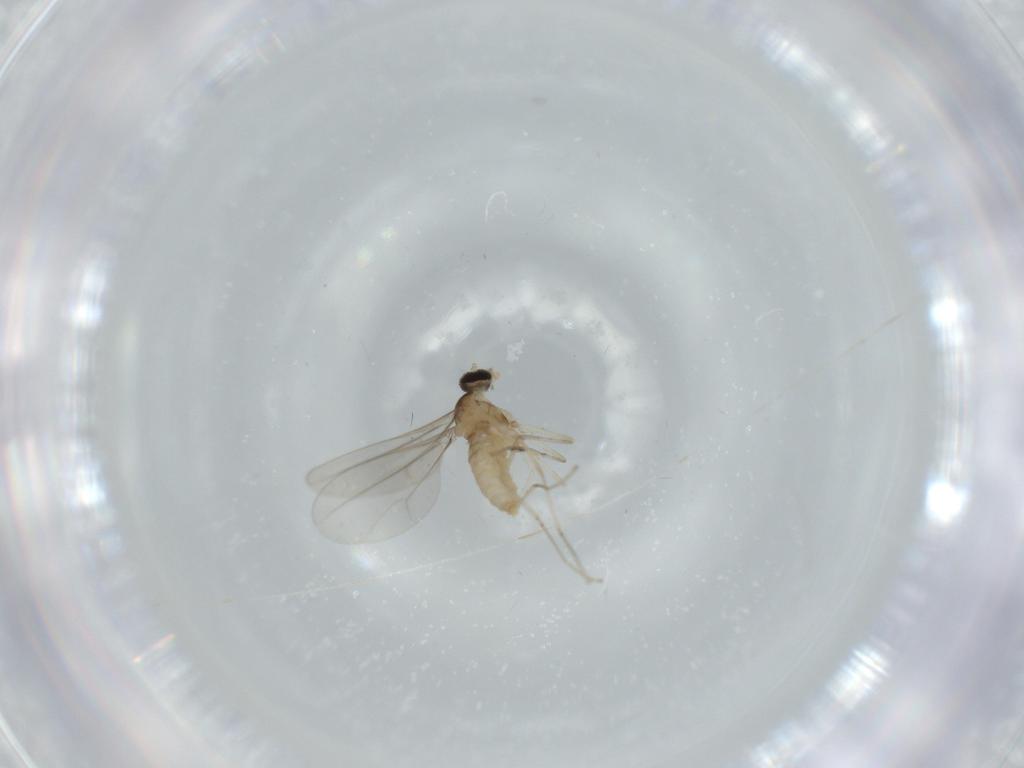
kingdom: Animalia
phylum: Arthropoda
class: Insecta
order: Diptera
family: Cecidomyiidae
